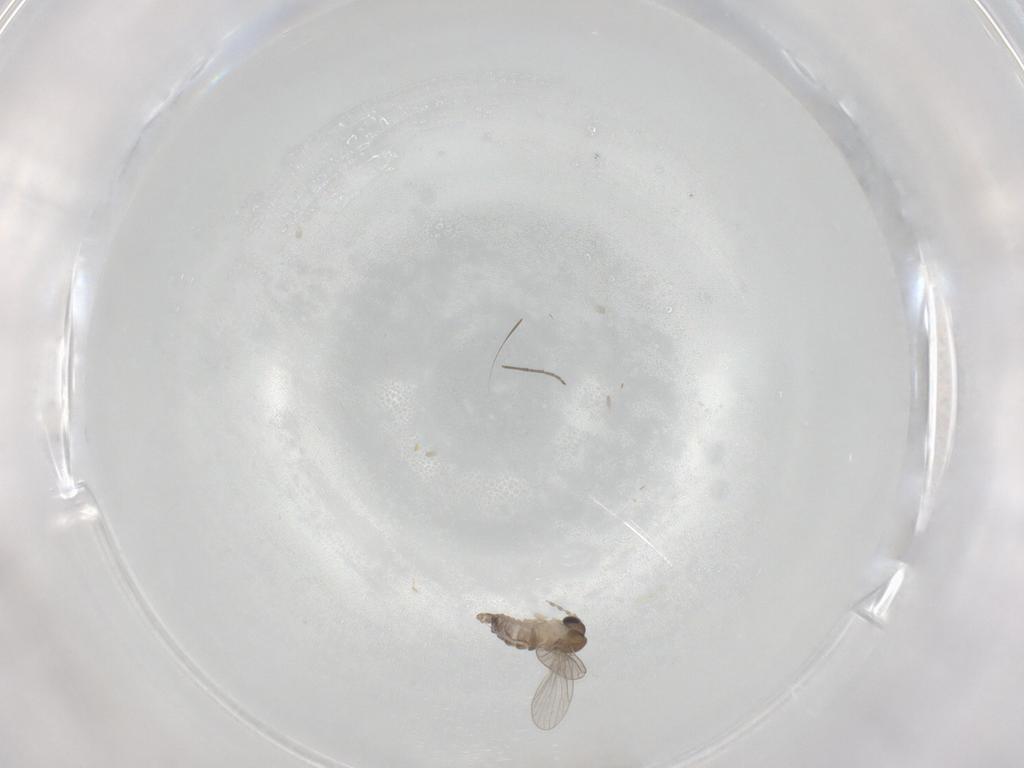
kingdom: Animalia
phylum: Arthropoda
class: Insecta
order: Diptera
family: Chironomidae
